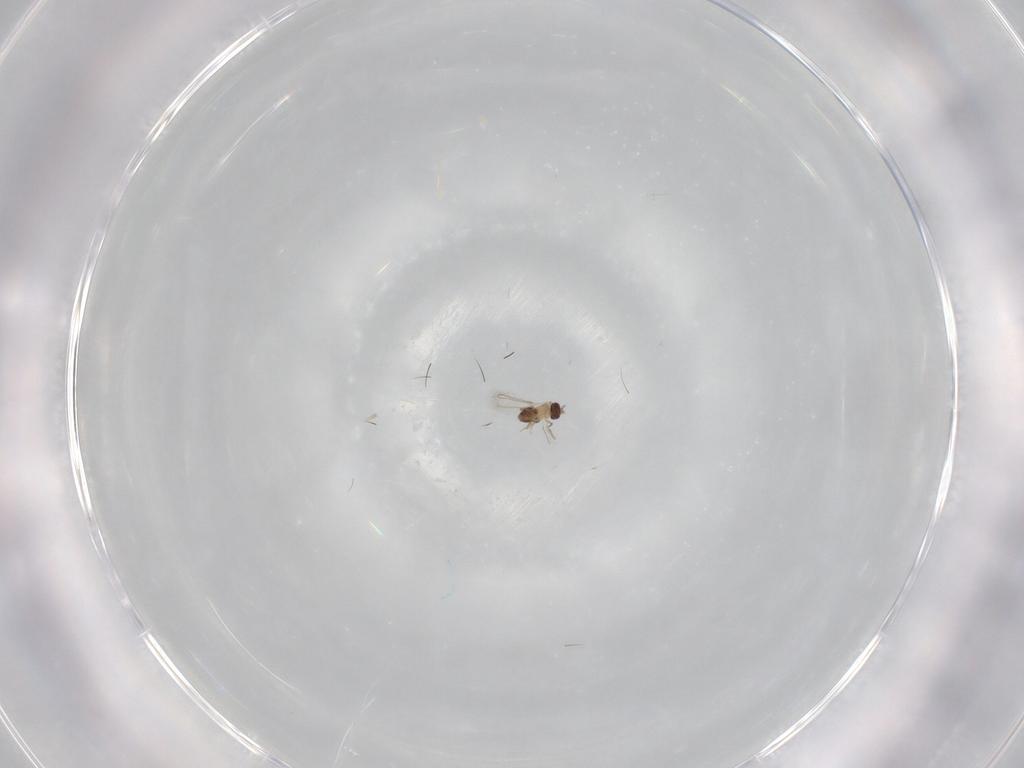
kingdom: Animalia
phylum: Arthropoda
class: Insecta
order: Hymenoptera
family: Mymaridae
